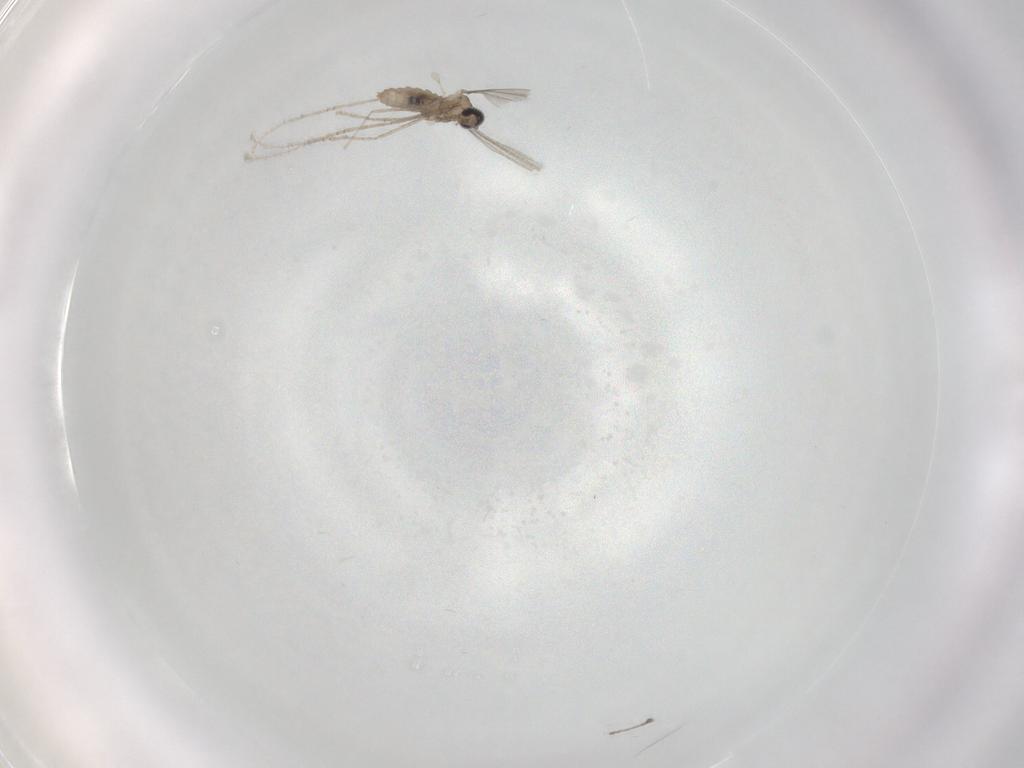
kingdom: Animalia
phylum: Arthropoda
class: Insecta
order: Diptera
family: Cecidomyiidae
